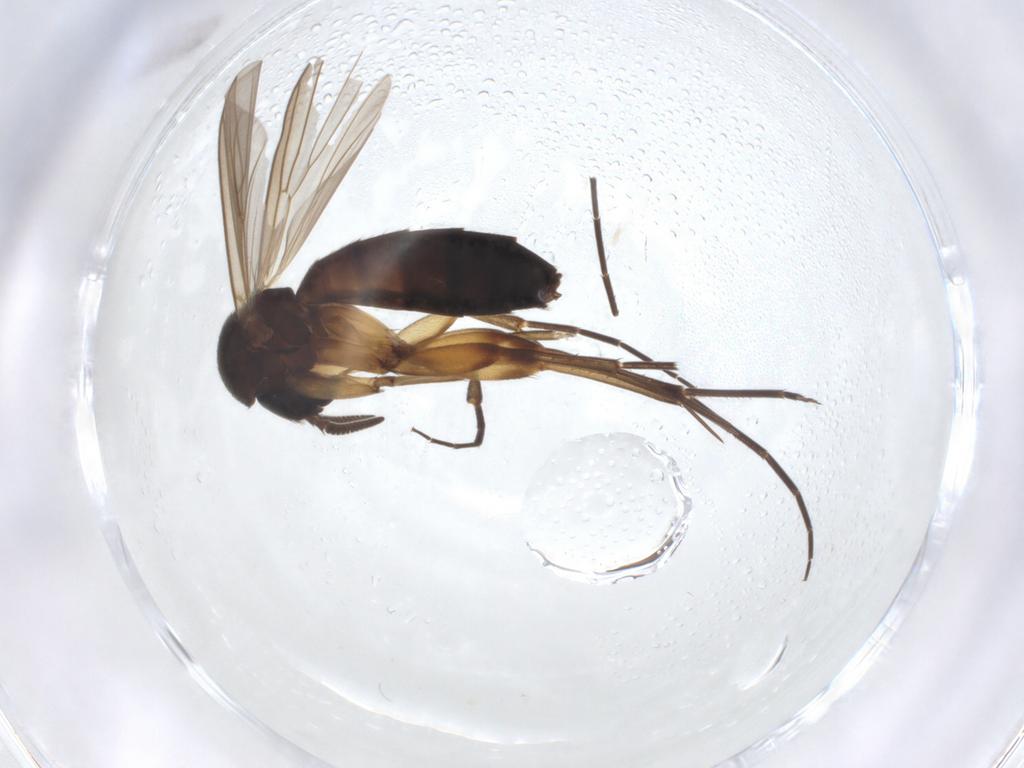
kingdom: Animalia
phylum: Arthropoda
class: Insecta
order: Diptera
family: Mycetophilidae
